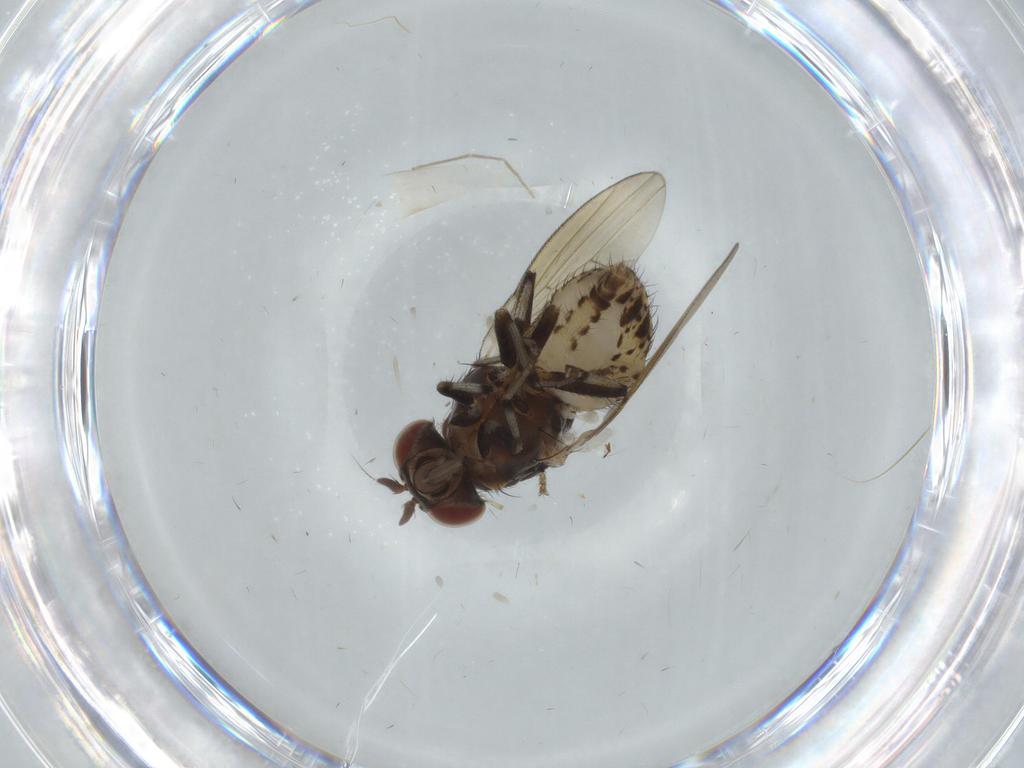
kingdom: Animalia
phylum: Arthropoda
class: Insecta
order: Diptera
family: Chironomidae
